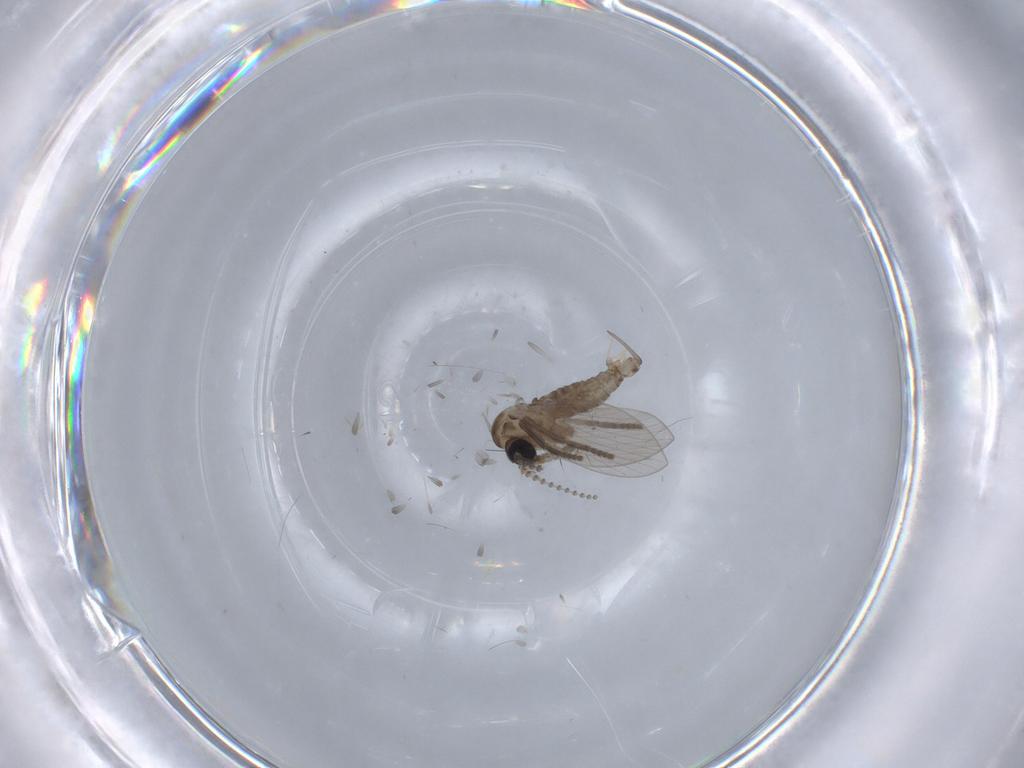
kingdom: Animalia
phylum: Arthropoda
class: Insecta
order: Diptera
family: Psychodidae
